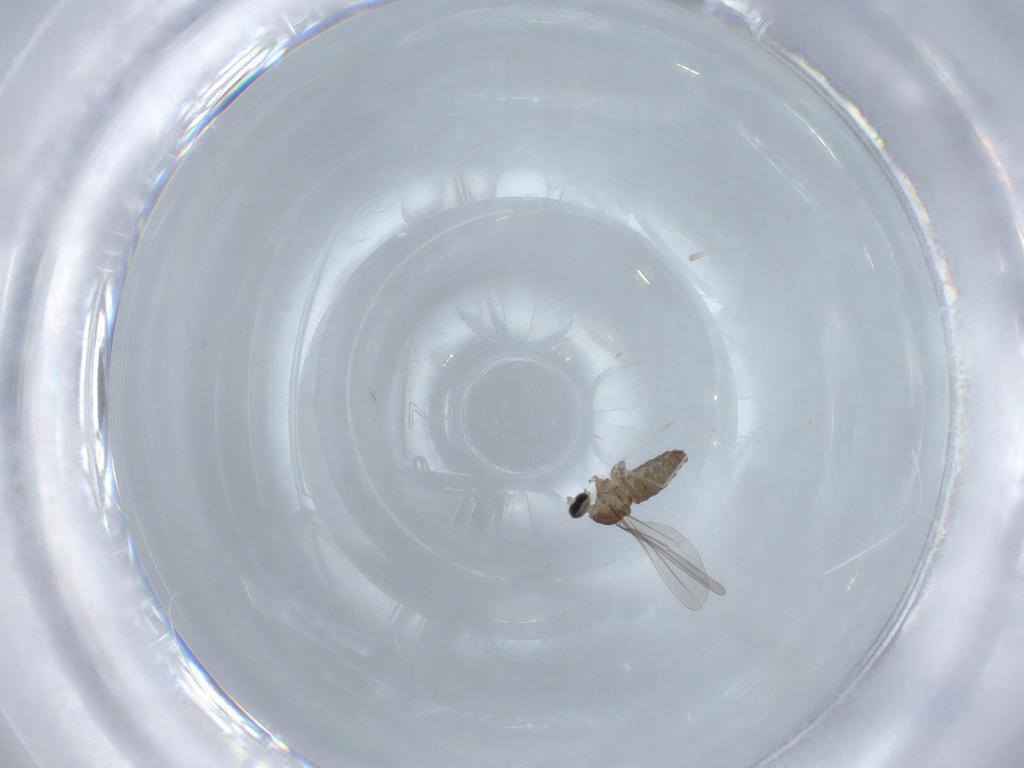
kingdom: Animalia
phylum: Arthropoda
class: Insecta
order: Diptera
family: Cecidomyiidae
